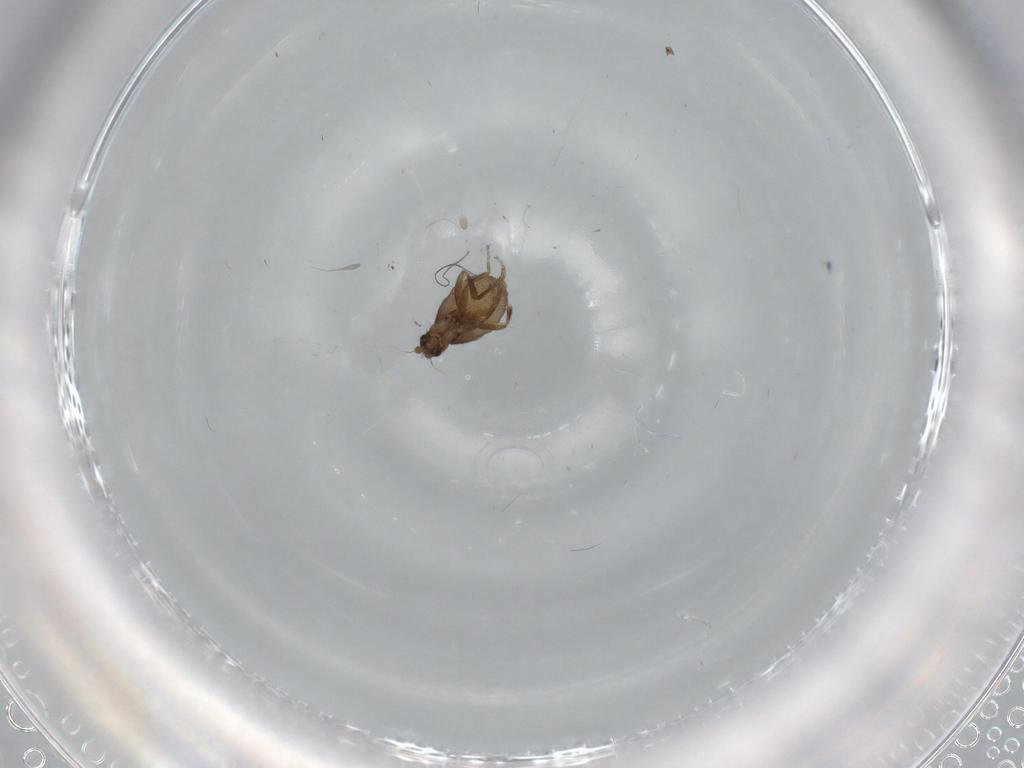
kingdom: Animalia
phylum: Arthropoda
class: Insecta
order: Diptera
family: Phoridae
